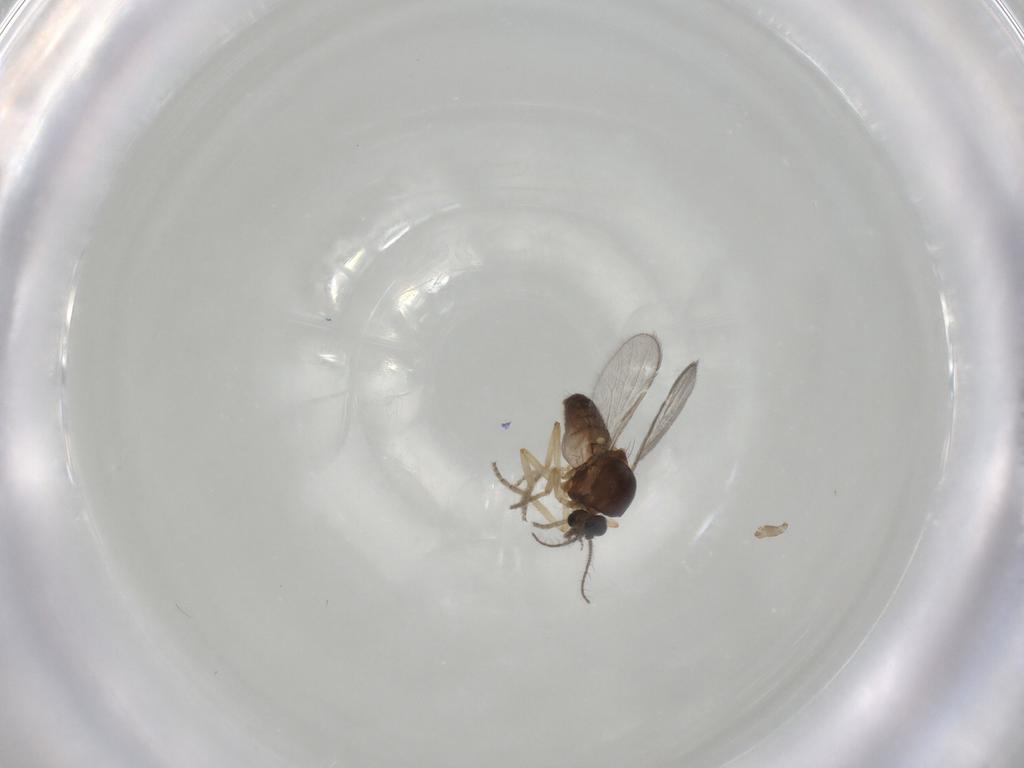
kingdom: Animalia
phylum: Arthropoda
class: Insecta
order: Diptera
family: Ceratopogonidae
